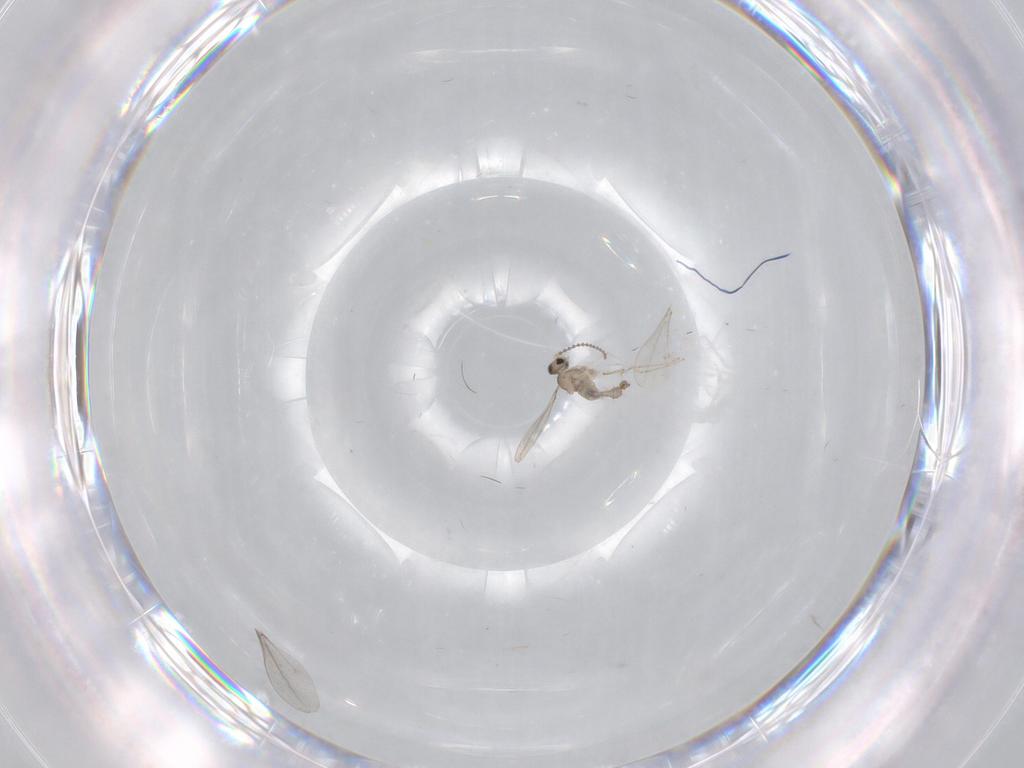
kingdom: Animalia
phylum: Arthropoda
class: Insecta
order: Diptera
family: Cecidomyiidae
